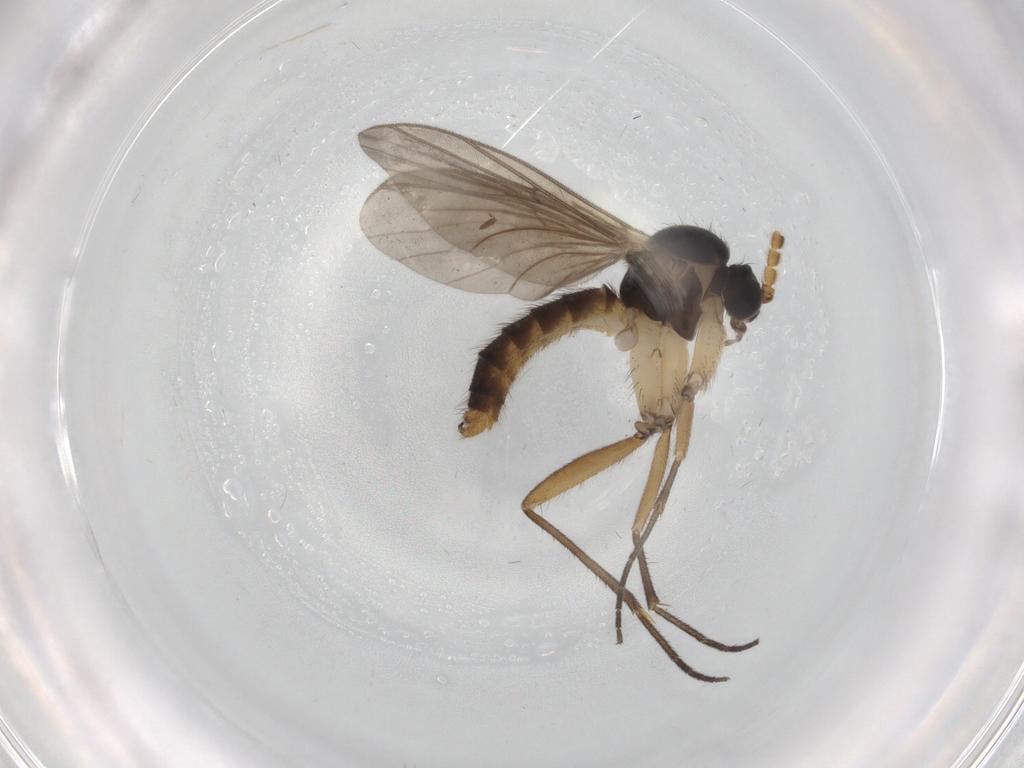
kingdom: Animalia
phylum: Arthropoda
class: Insecta
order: Diptera
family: Mycetophilidae
